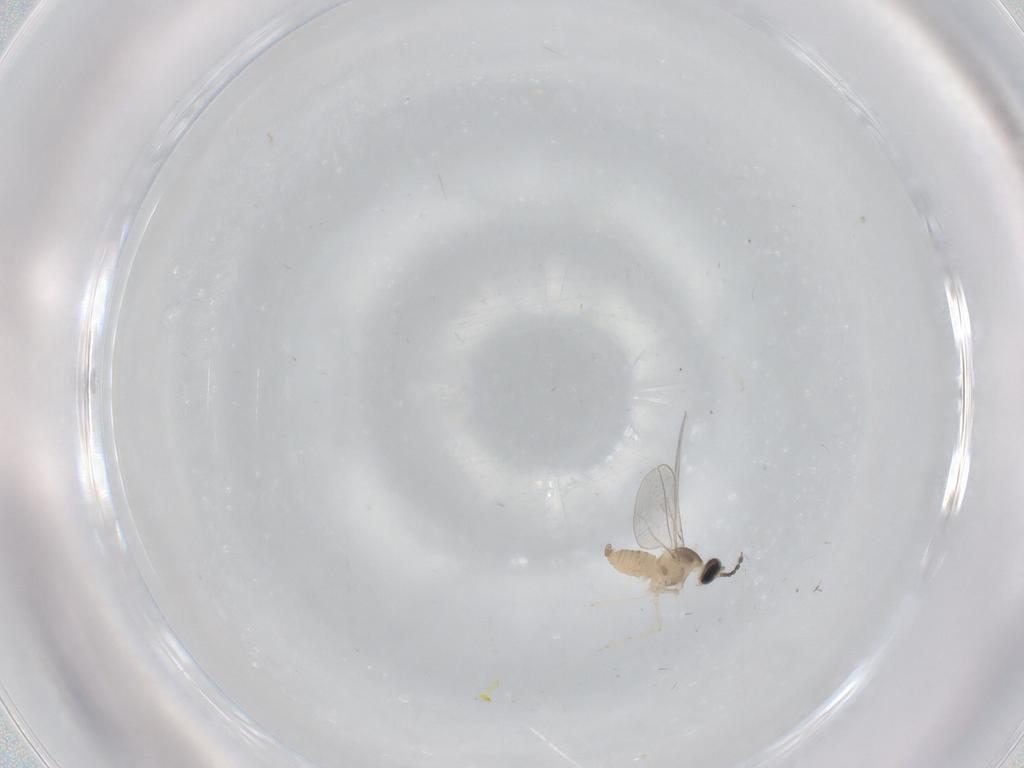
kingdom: Animalia
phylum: Arthropoda
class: Insecta
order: Diptera
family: Cecidomyiidae
